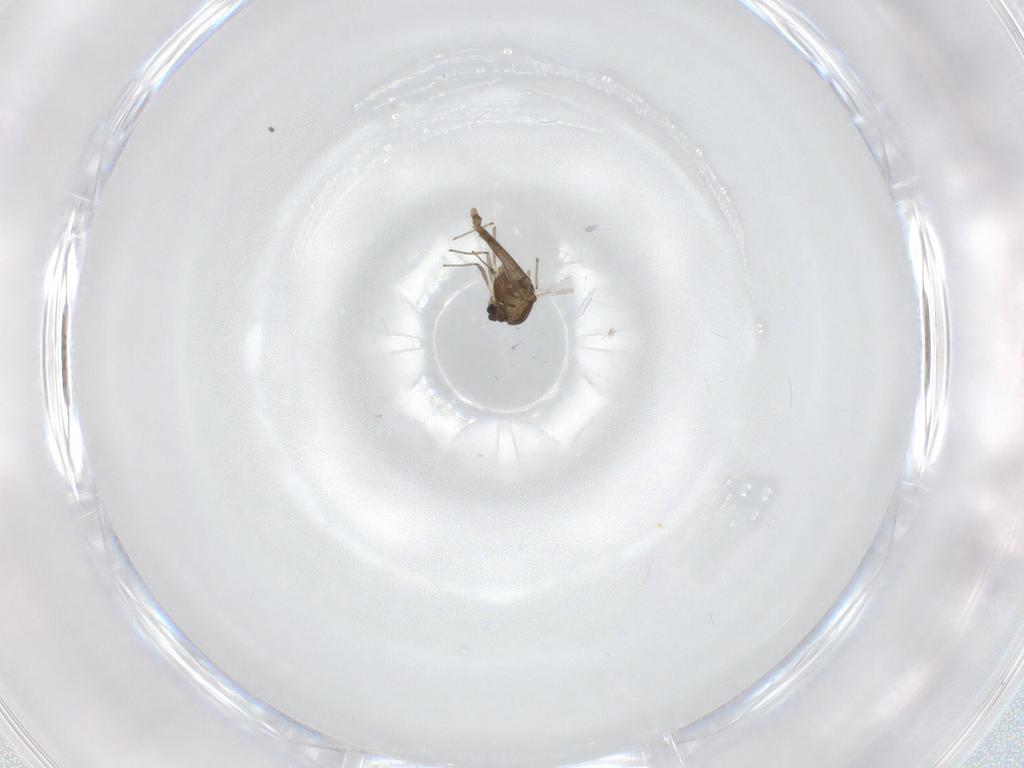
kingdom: Animalia
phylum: Arthropoda
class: Insecta
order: Diptera
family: Chironomidae
